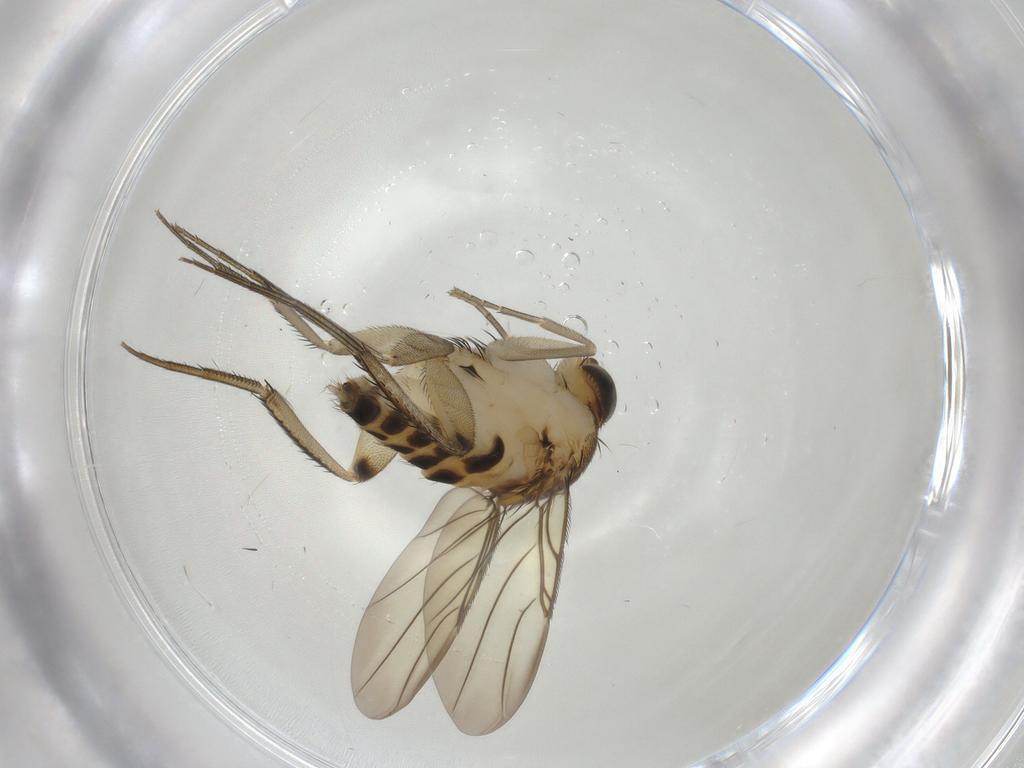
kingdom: Animalia
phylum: Arthropoda
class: Insecta
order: Diptera
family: Phoridae
